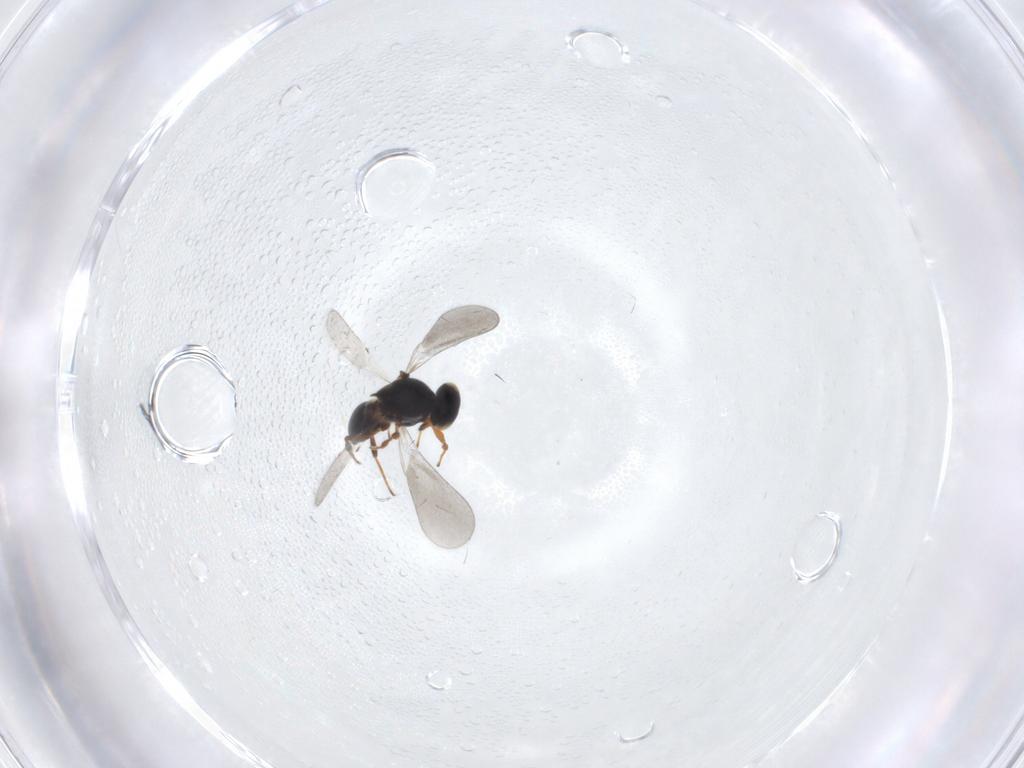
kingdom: Animalia
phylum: Arthropoda
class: Insecta
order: Hymenoptera
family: Platygastridae
